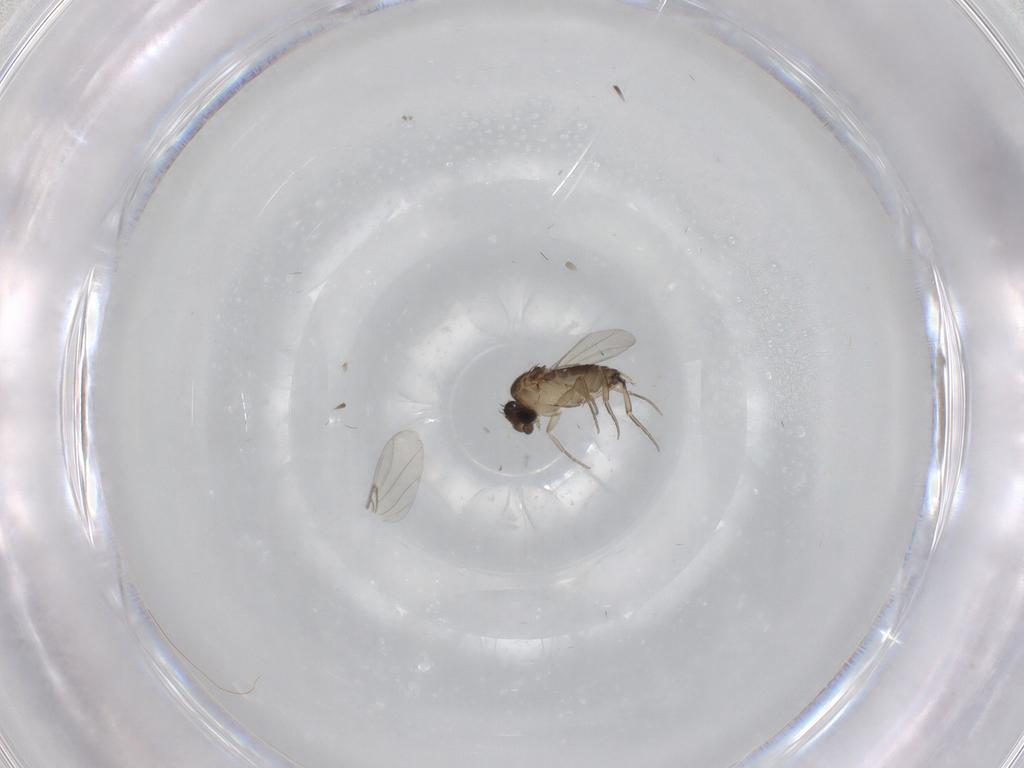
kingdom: Animalia
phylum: Arthropoda
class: Insecta
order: Diptera
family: Phoridae
